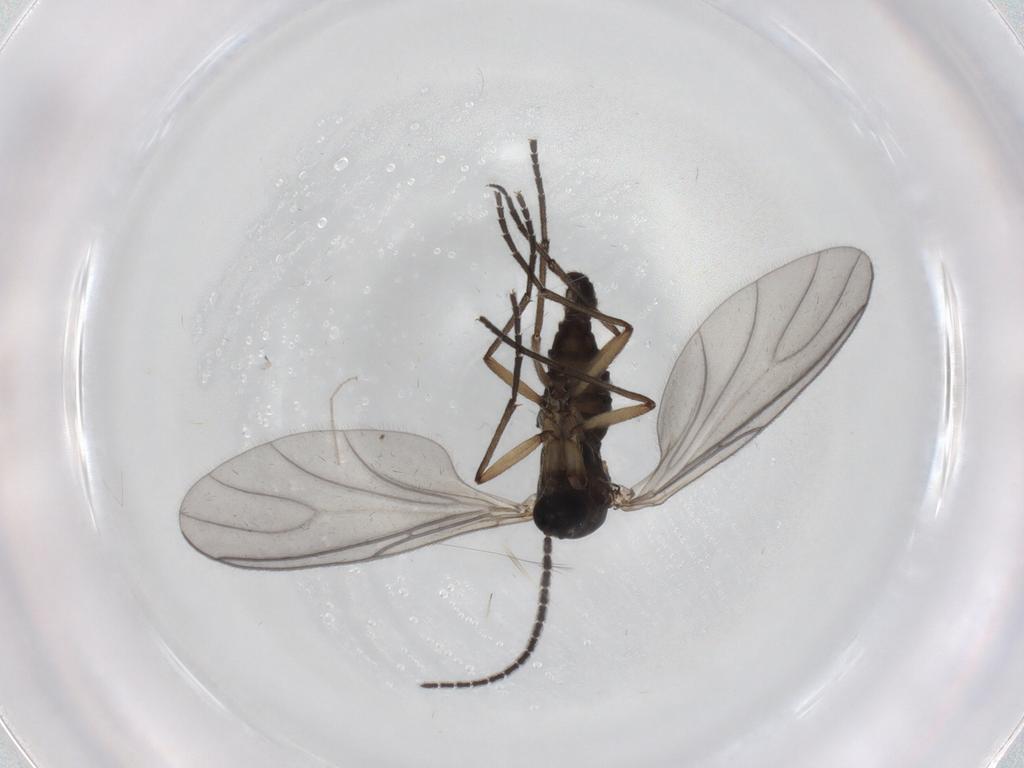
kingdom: Animalia
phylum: Arthropoda
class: Insecta
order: Diptera
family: Sciaridae
